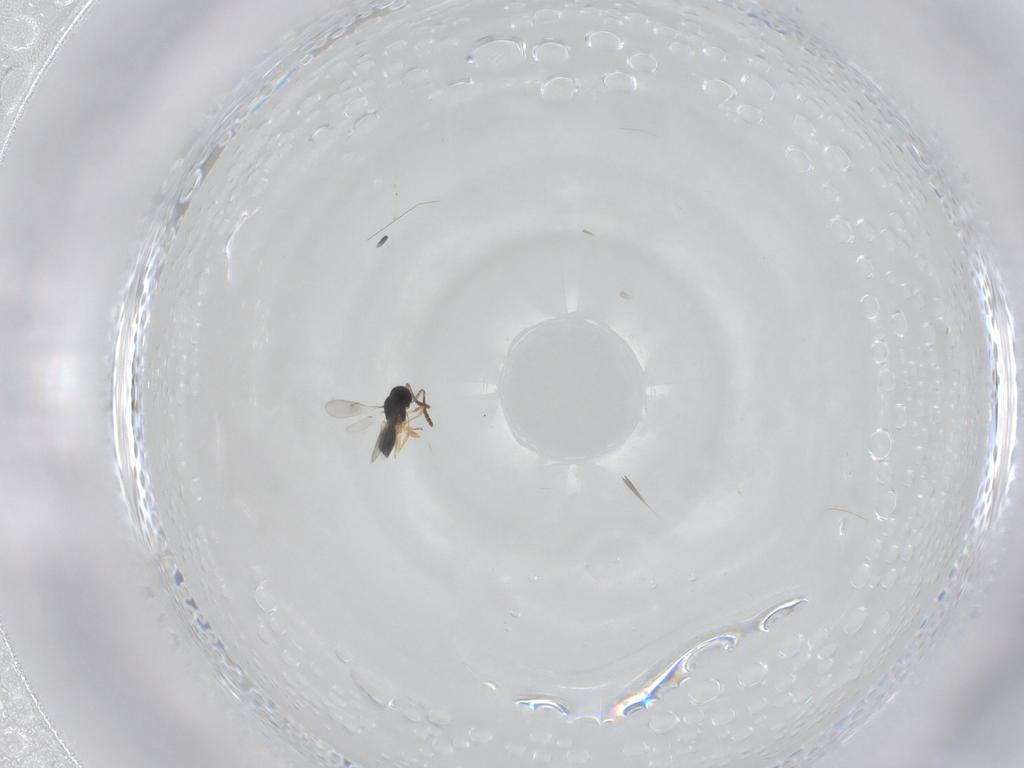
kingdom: Animalia
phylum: Arthropoda
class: Insecta
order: Hymenoptera
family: Scelionidae
